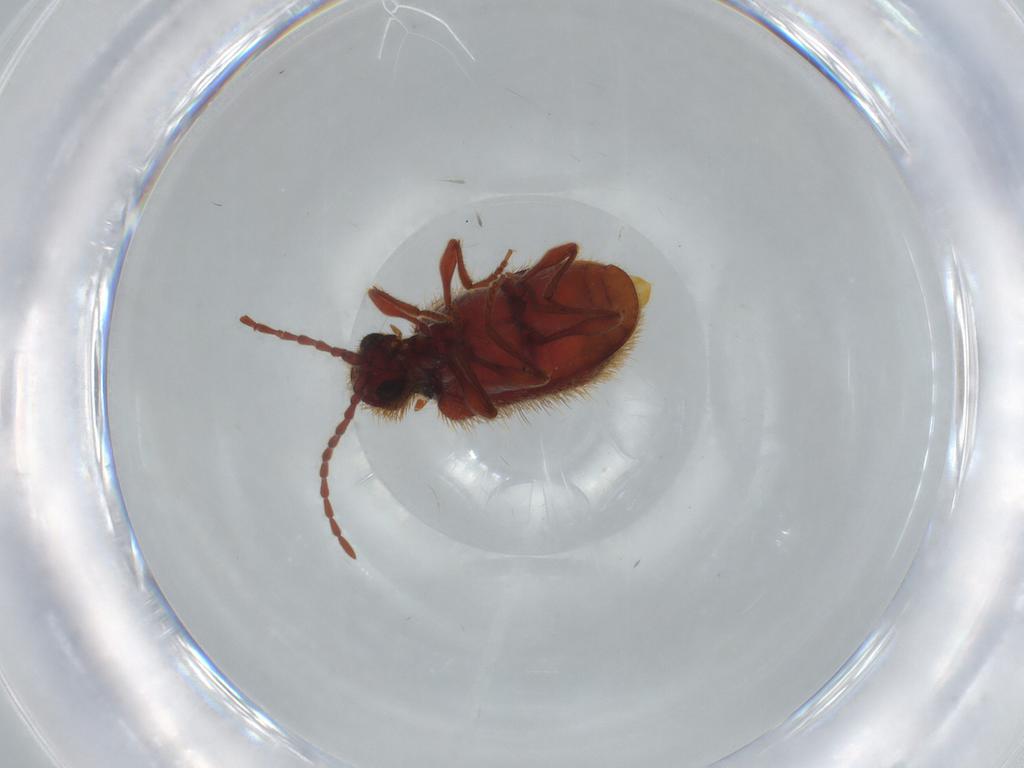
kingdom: Animalia
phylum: Arthropoda
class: Insecta
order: Coleoptera
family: Ptinidae
